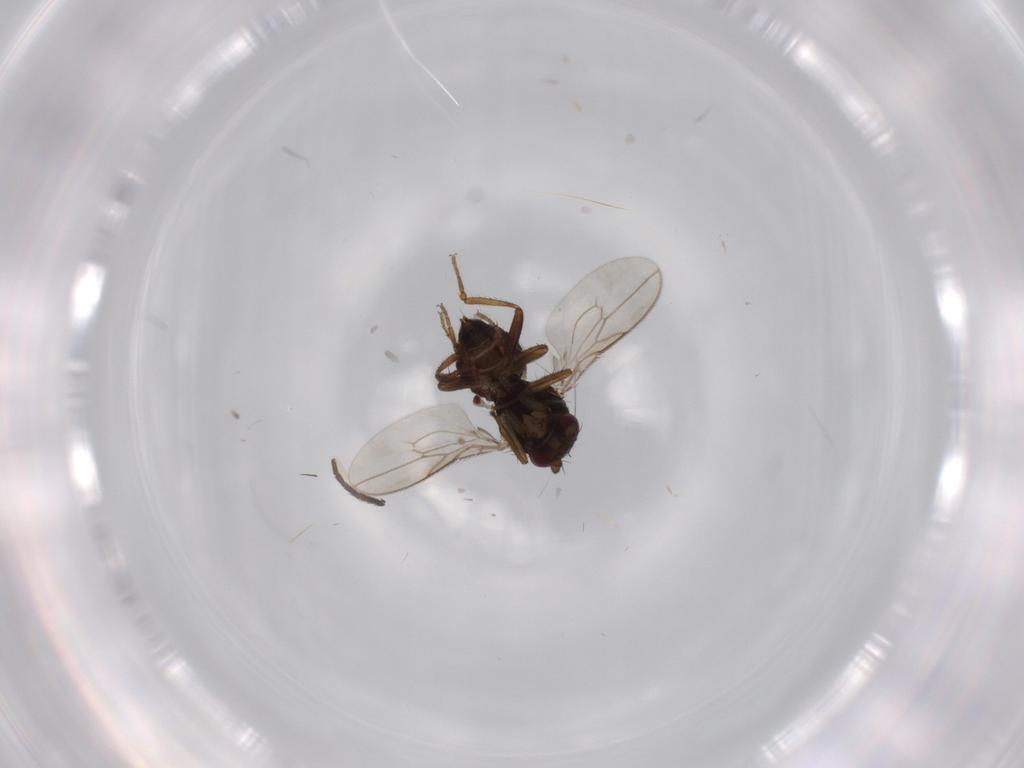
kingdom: Animalia
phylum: Arthropoda
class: Insecta
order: Diptera
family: Sphaeroceridae
